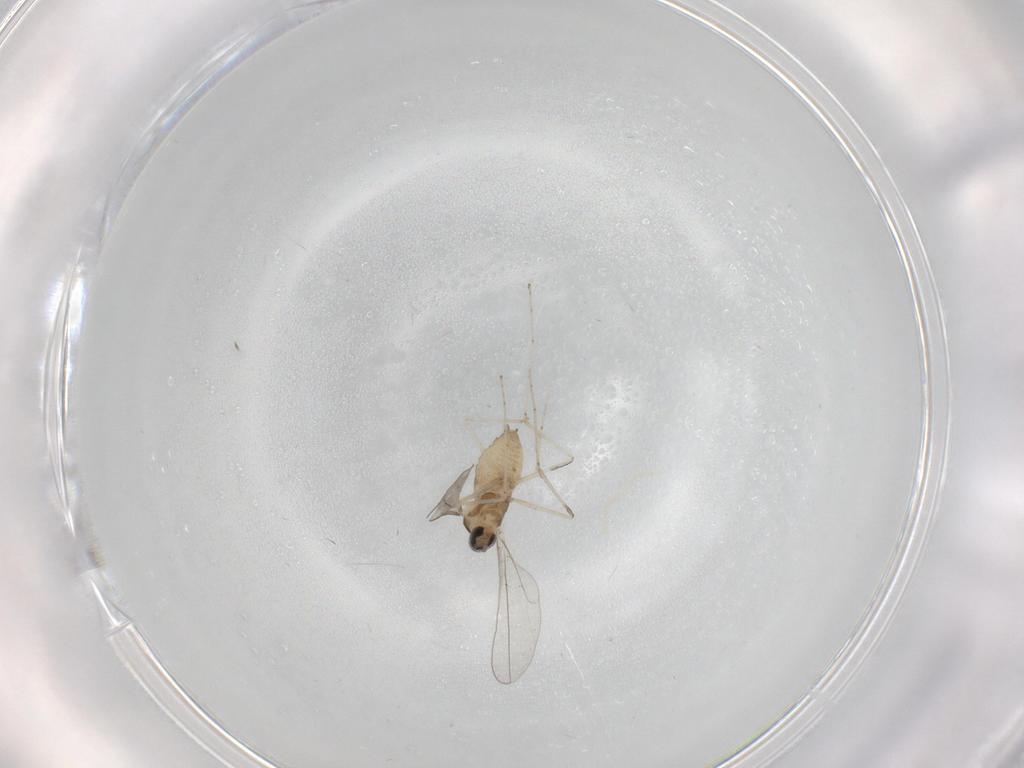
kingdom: Animalia
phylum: Arthropoda
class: Insecta
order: Diptera
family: Cecidomyiidae
